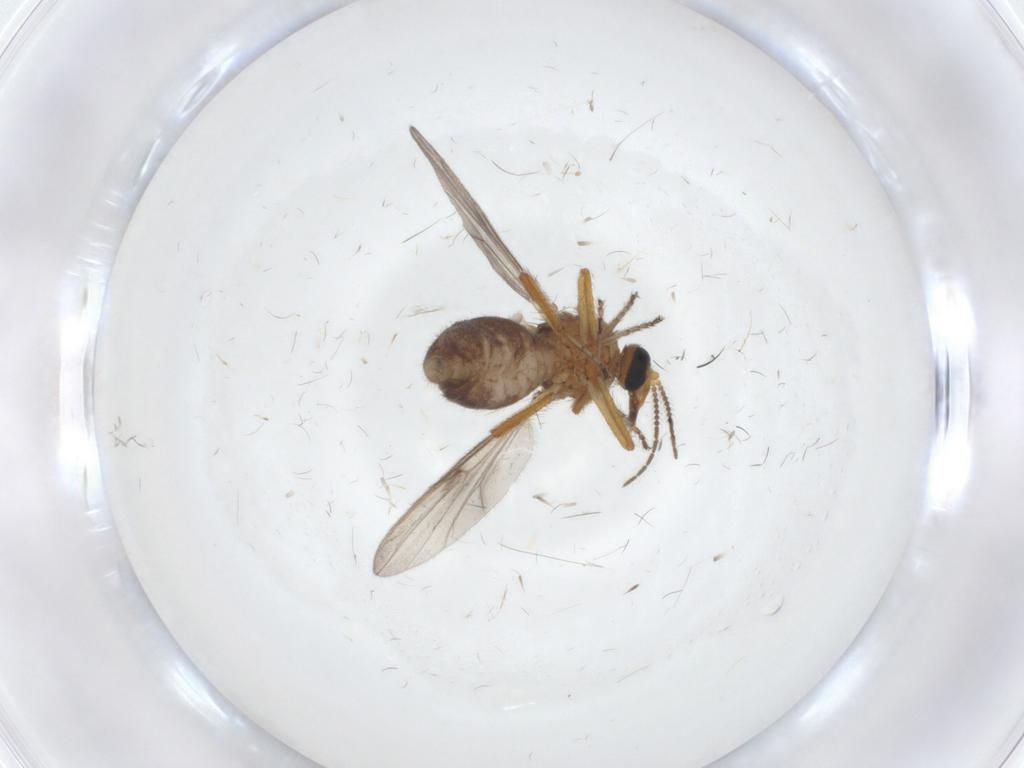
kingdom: Animalia
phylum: Arthropoda
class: Insecta
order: Diptera
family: Ceratopogonidae
